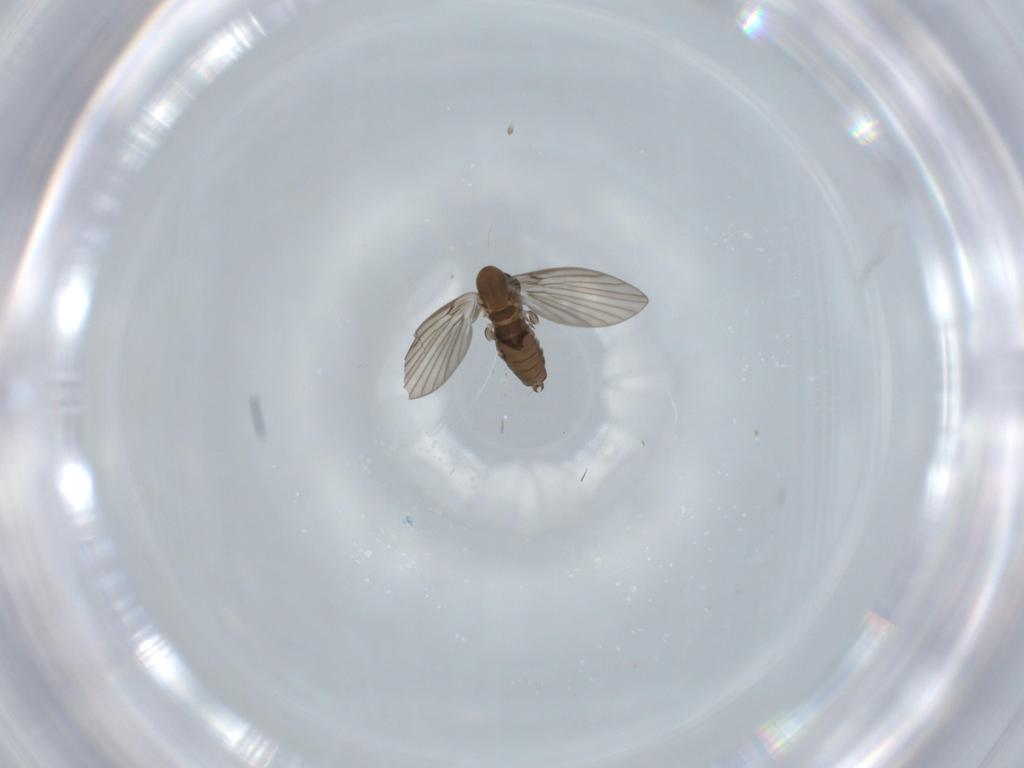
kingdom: Animalia
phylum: Arthropoda
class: Insecta
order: Diptera
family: Psychodidae
